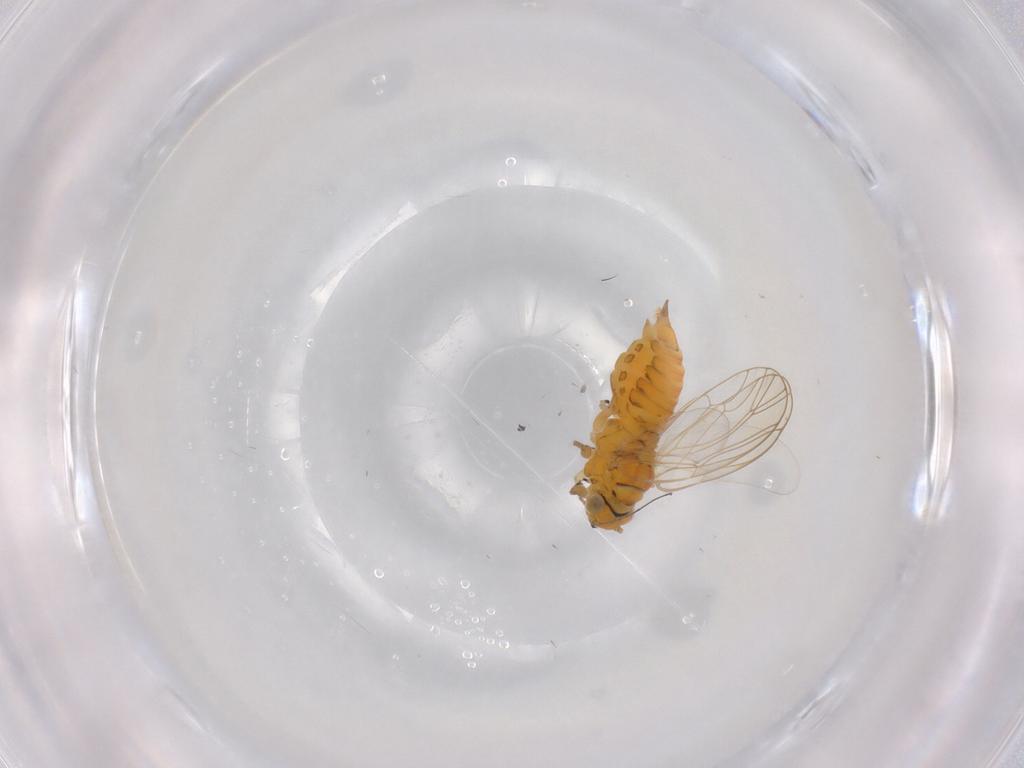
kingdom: Animalia
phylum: Arthropoda
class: Insecta
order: Hemiptera
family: Psyllidae
